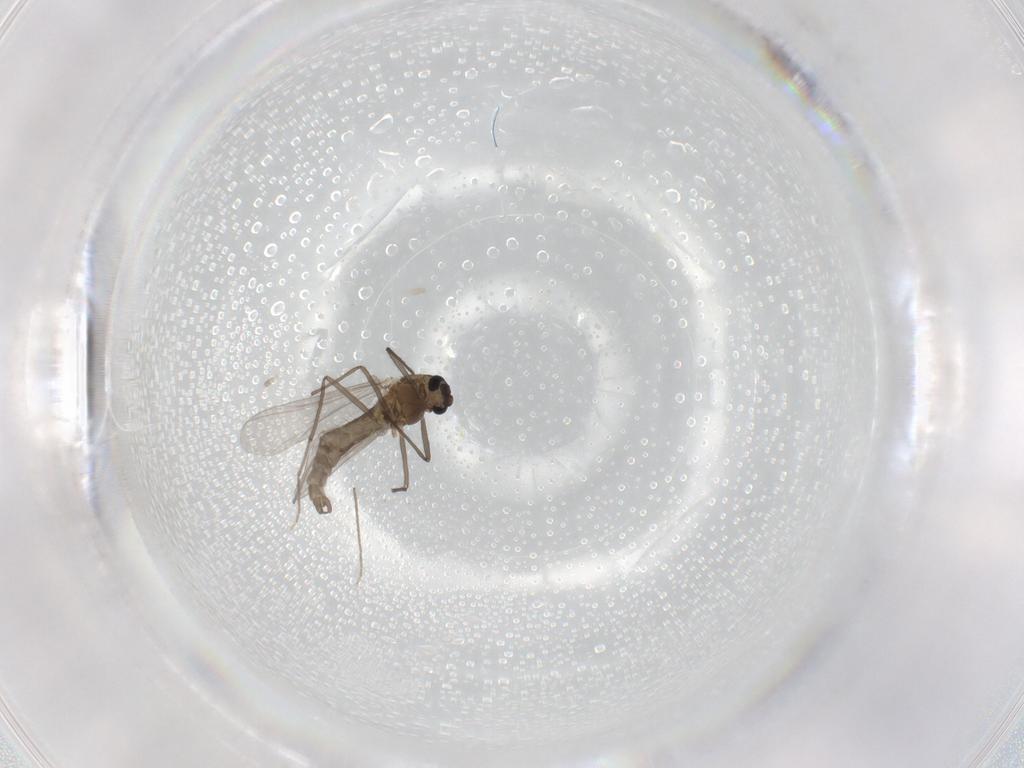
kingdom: Animalia
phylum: Arthropoda
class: Insecta
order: Diptera
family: Chironomidae
